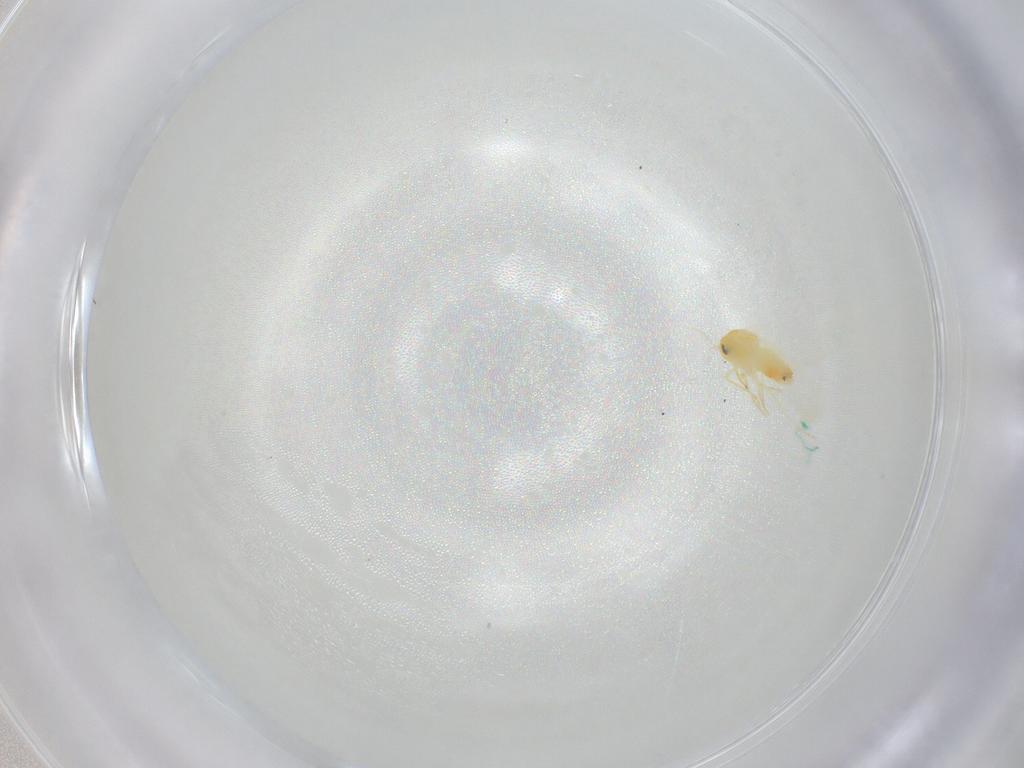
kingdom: Animalia
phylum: Arthropoda
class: Insecta
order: Hemiptera
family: Aleyrodidae
